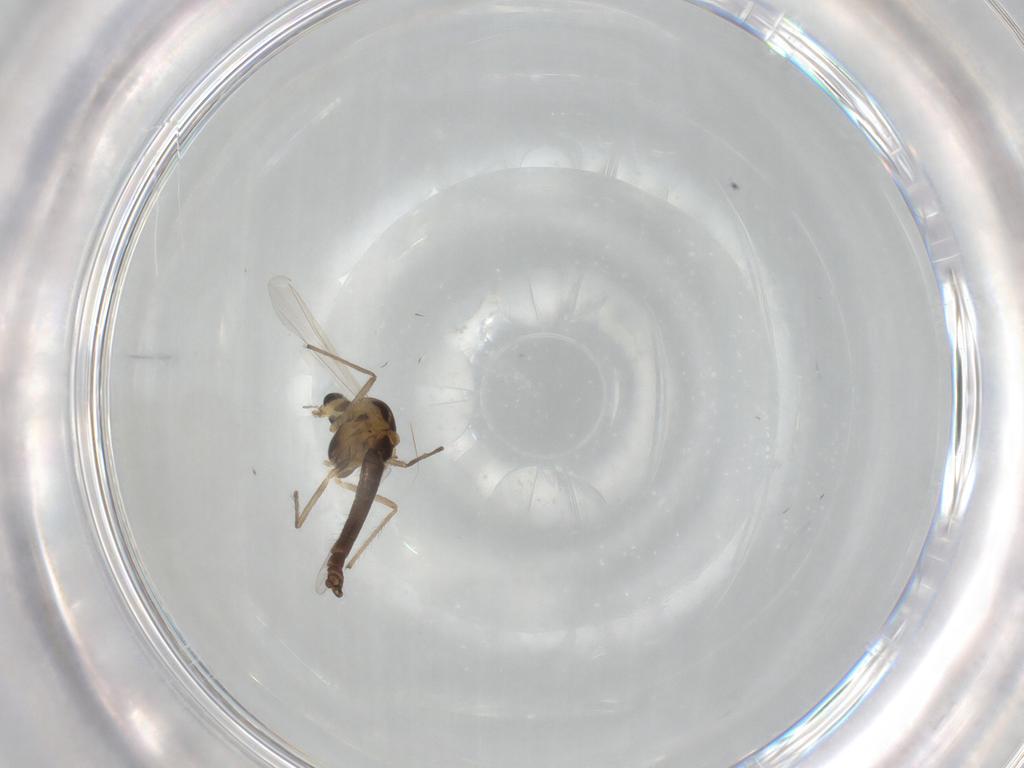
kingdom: Animalia
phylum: Arthropoda
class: Insecta
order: Diptera
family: Chironomidae
